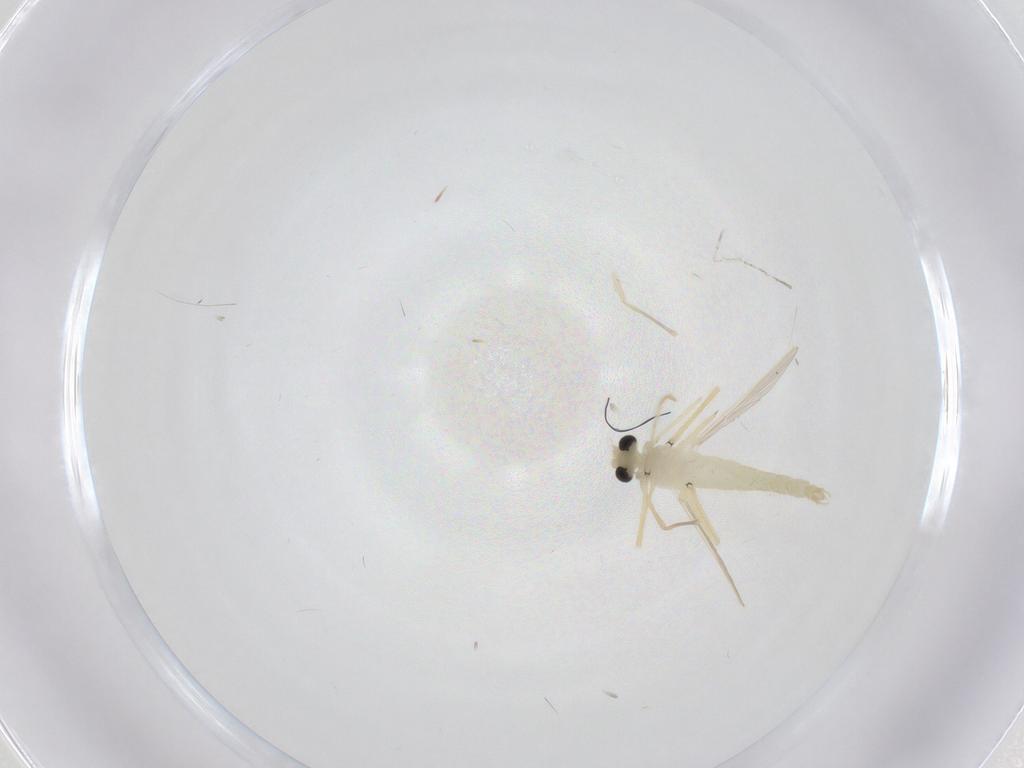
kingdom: Animalia
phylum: Arthropoda
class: Insecta
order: Diptera
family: Chironomidae
